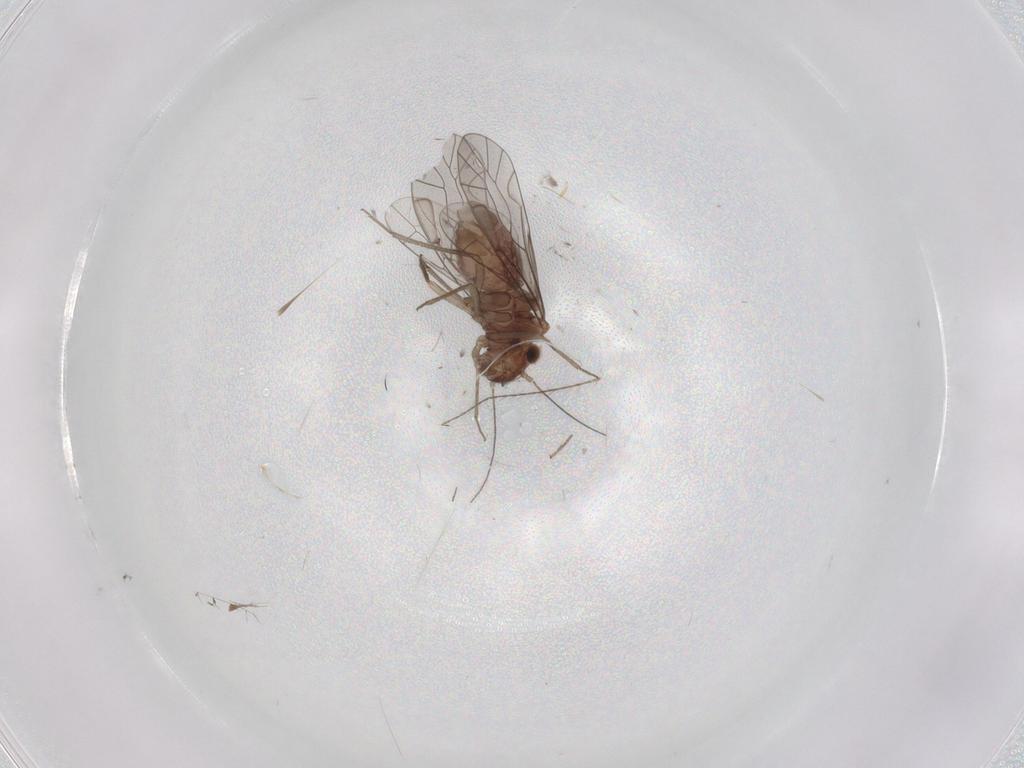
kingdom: Animalia
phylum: Arthropoda
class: Insecta
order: Psocodea
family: Lachesillidae
